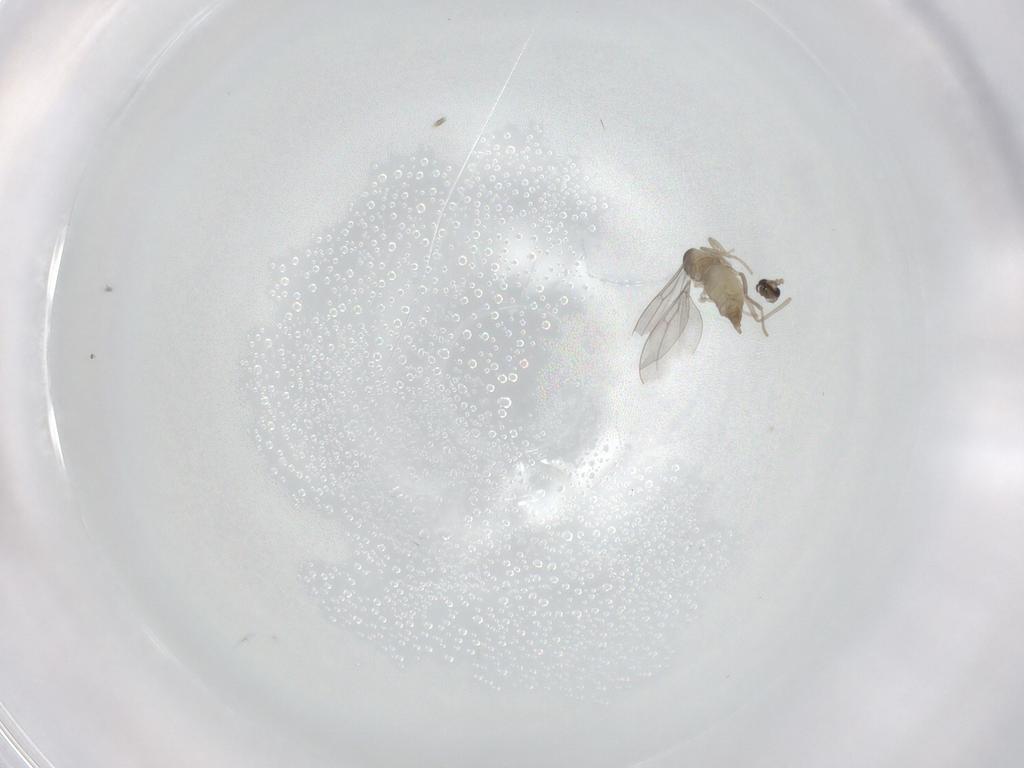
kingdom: Animalia
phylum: Arthropoda
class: Insecta
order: Diptera
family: Cecidomyiidae
